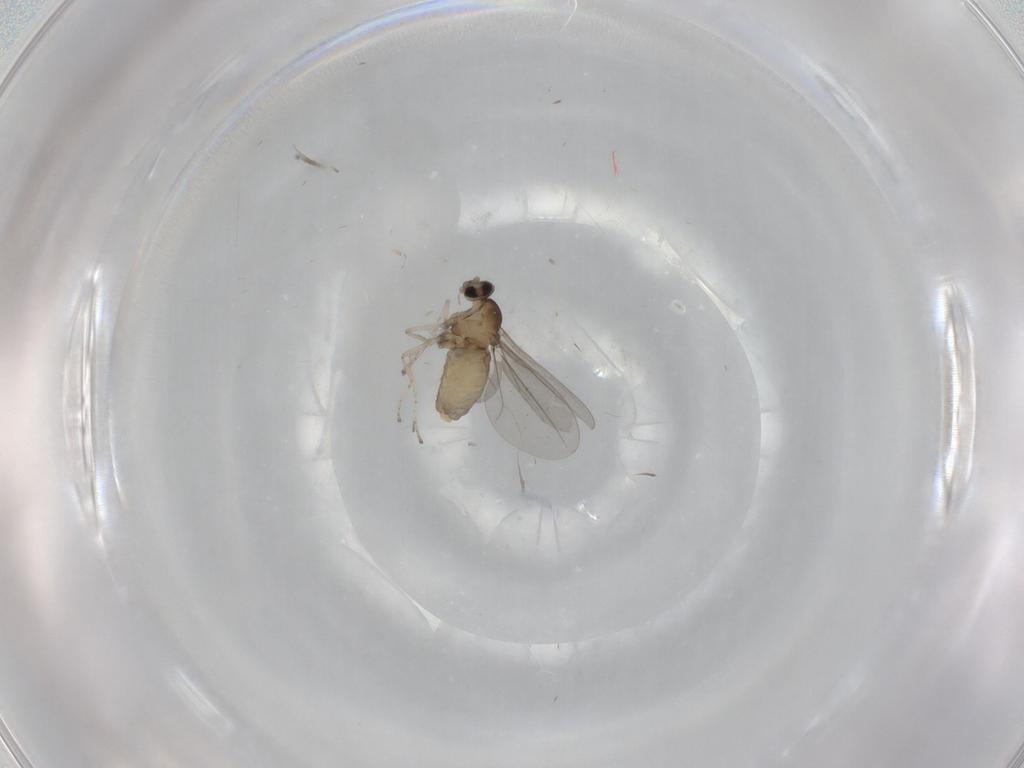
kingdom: Animalia
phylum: Arthropoda
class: Insecta
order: Diptera
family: Cecidomyiidae
